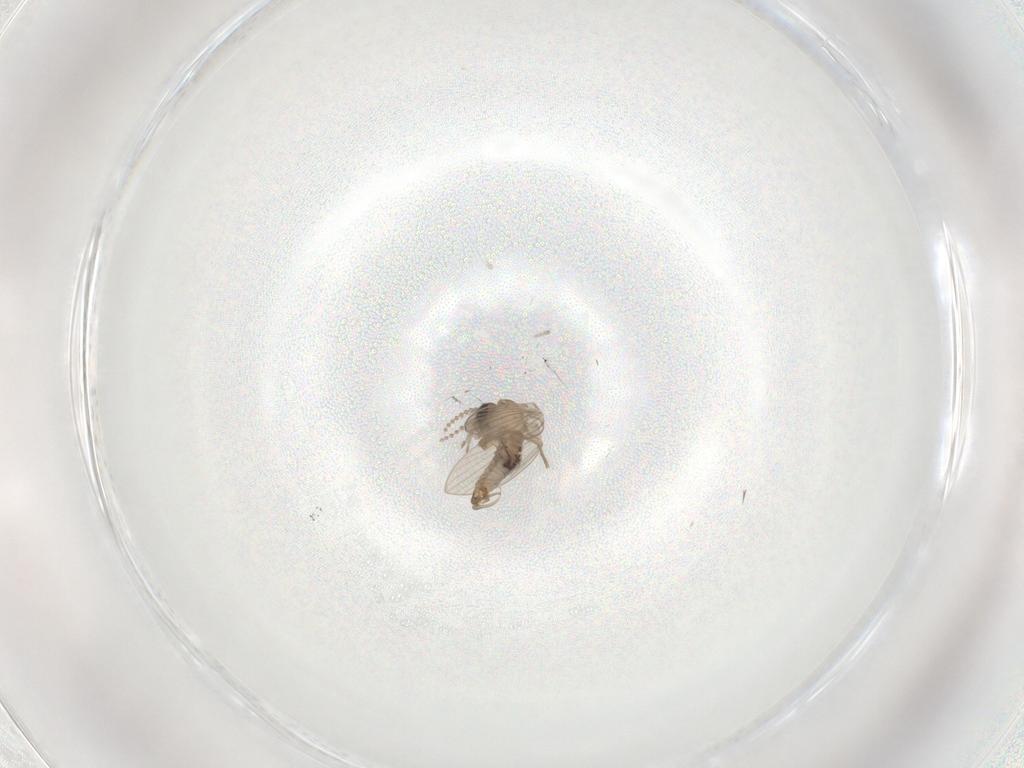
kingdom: Animalia
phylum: Arthropoda
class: Insecta
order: Diptera
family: Psychodidae
